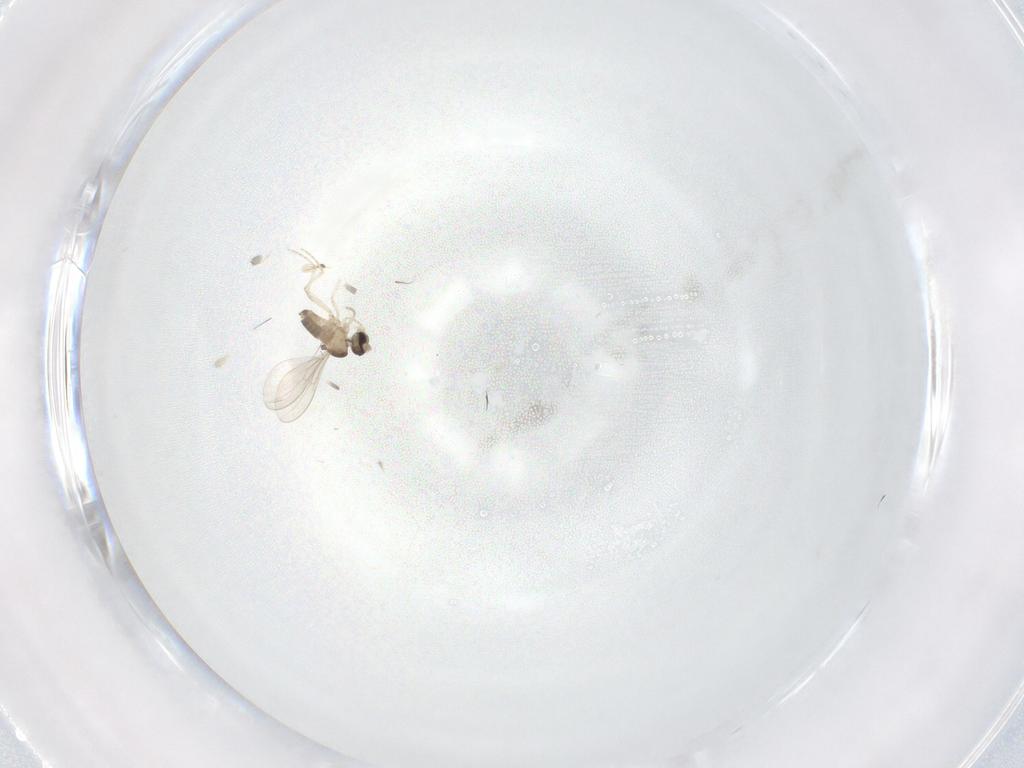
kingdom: Animalia
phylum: Arthropoda
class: Insecta
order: Diptera
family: Cecidomyiidae
